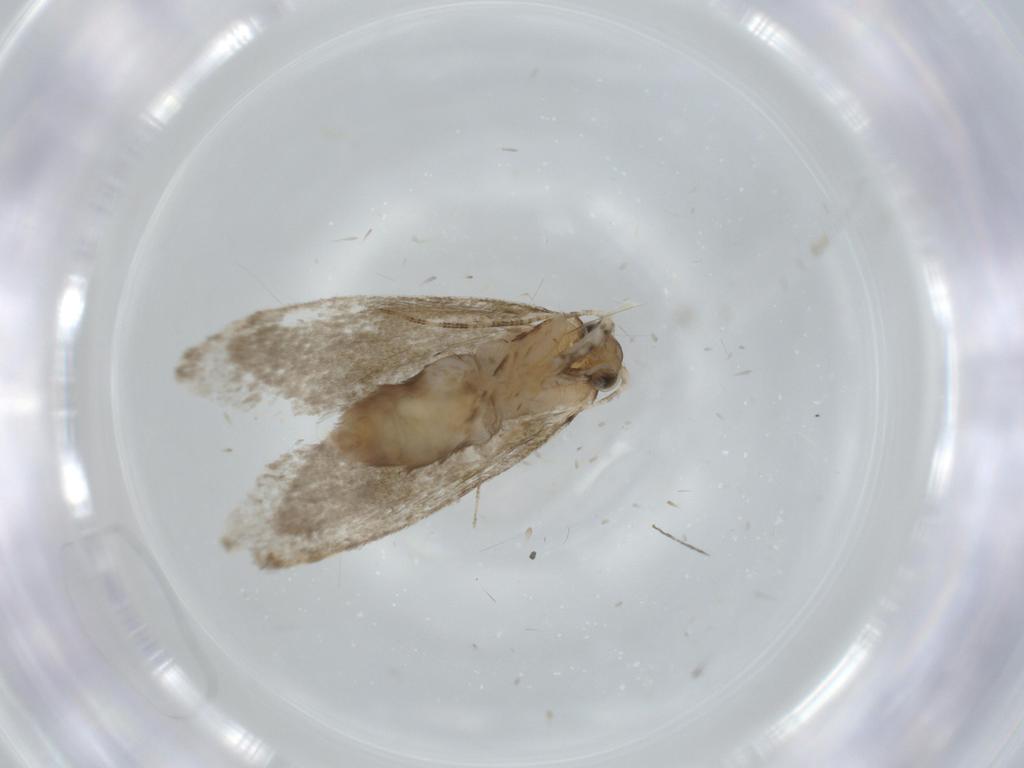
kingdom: Animalia
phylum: Arthropoda
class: Insecta
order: Lepidoptera
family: Tineidae
